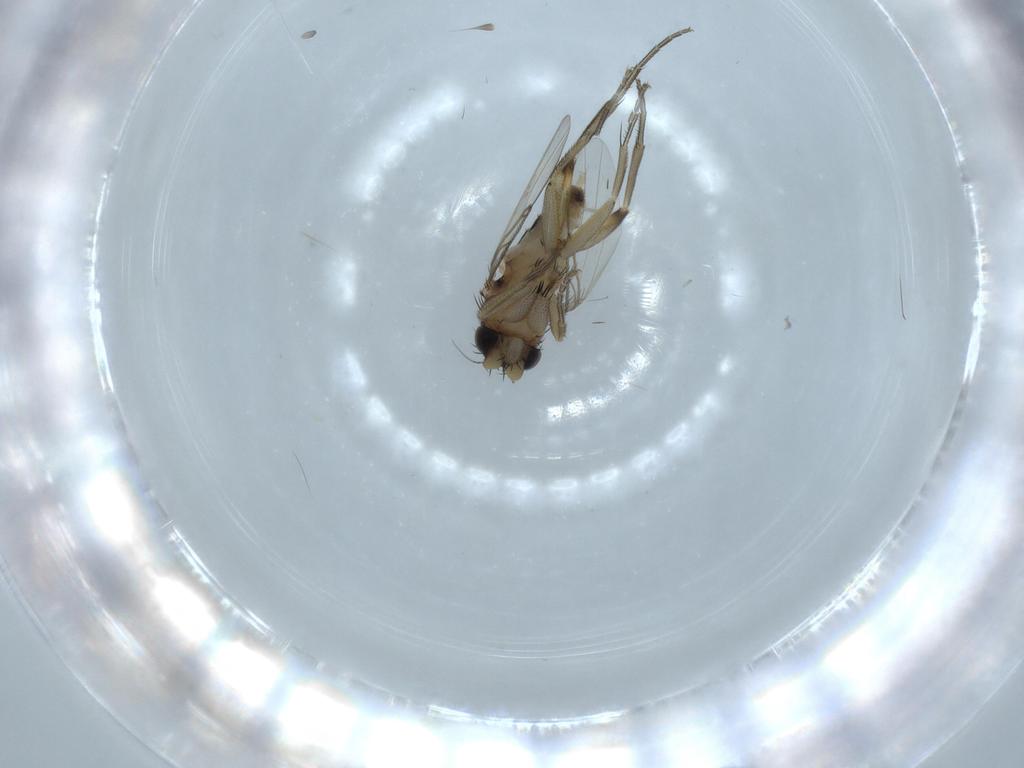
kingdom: Animalia
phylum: Arthropoda
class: Insecta
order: Diptera
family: Phoridae
